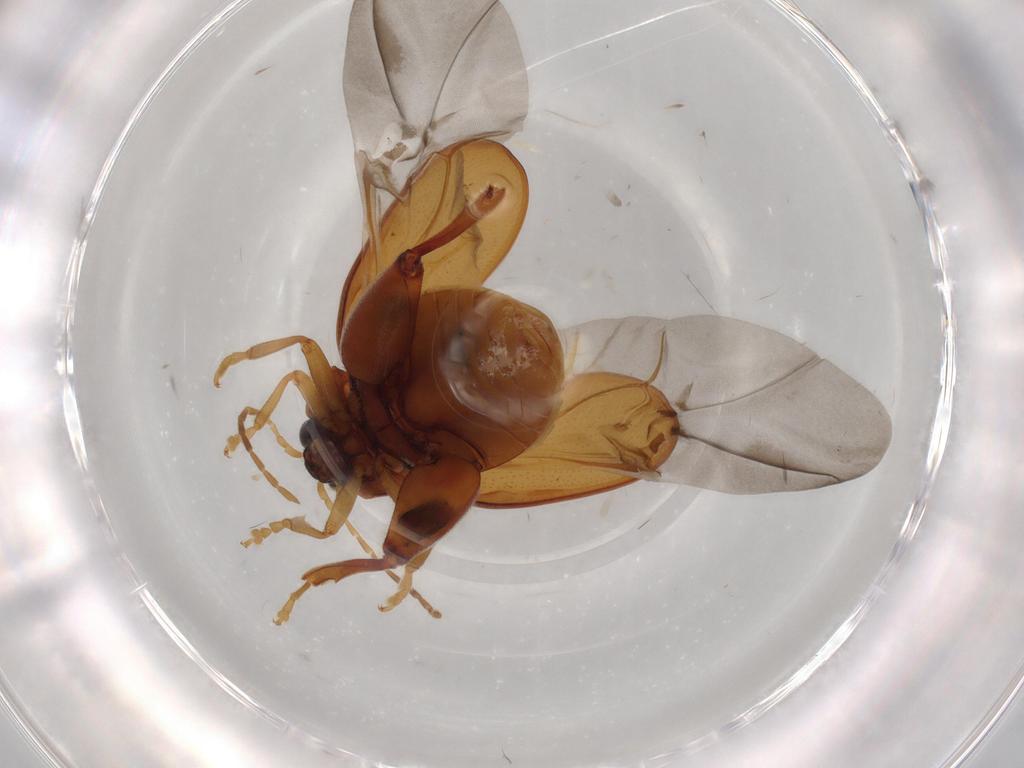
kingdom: Animalia
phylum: Arthropoda
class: Insecta
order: Coleoptera
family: Chrysomelidae
